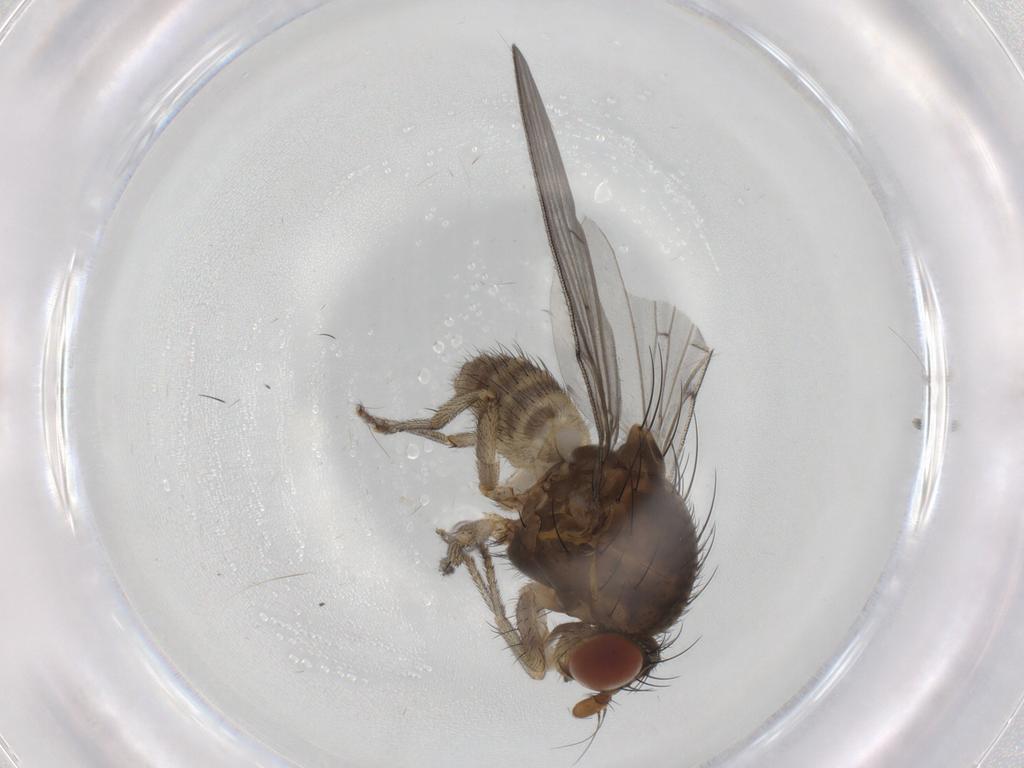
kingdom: Animalia
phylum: Arthropoda
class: Insecta
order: Diptera
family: Lauxaniidae
